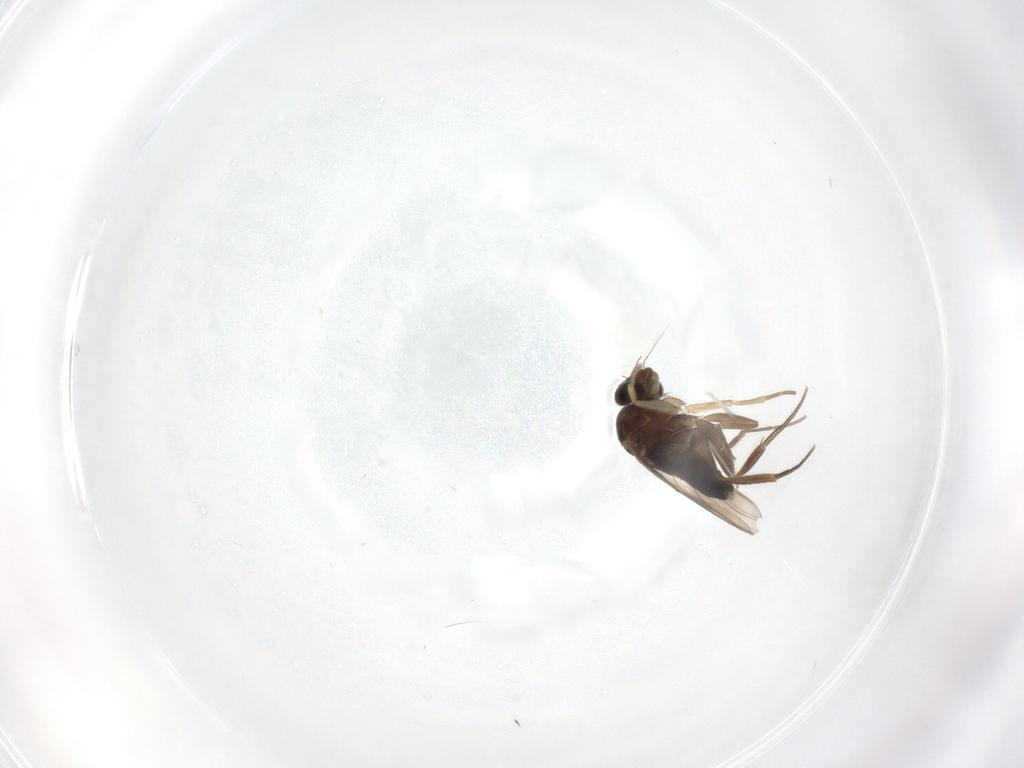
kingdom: Animalia
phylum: Arthropoda
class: Insecta
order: Diptera
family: Phoridae
